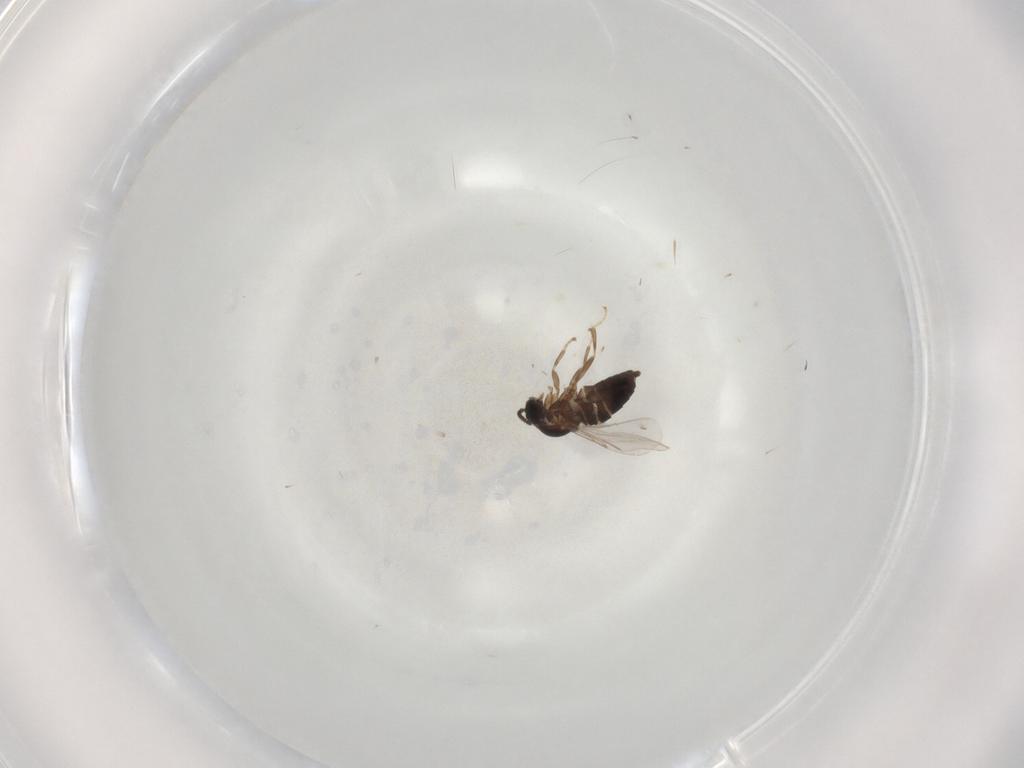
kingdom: Animalia
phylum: Arthropoda
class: Insecta
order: Diptera
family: Scatopsidae
